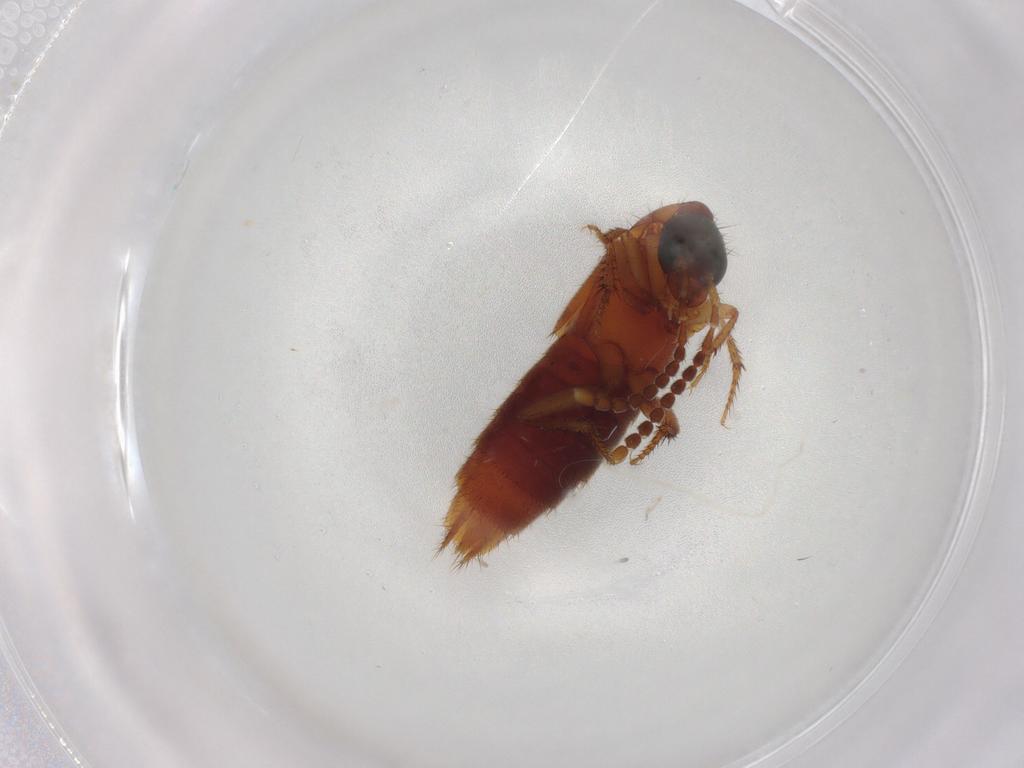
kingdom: Animalia
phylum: Arthropoda
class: Insecta
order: Coleoptera
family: Staphylinidae
